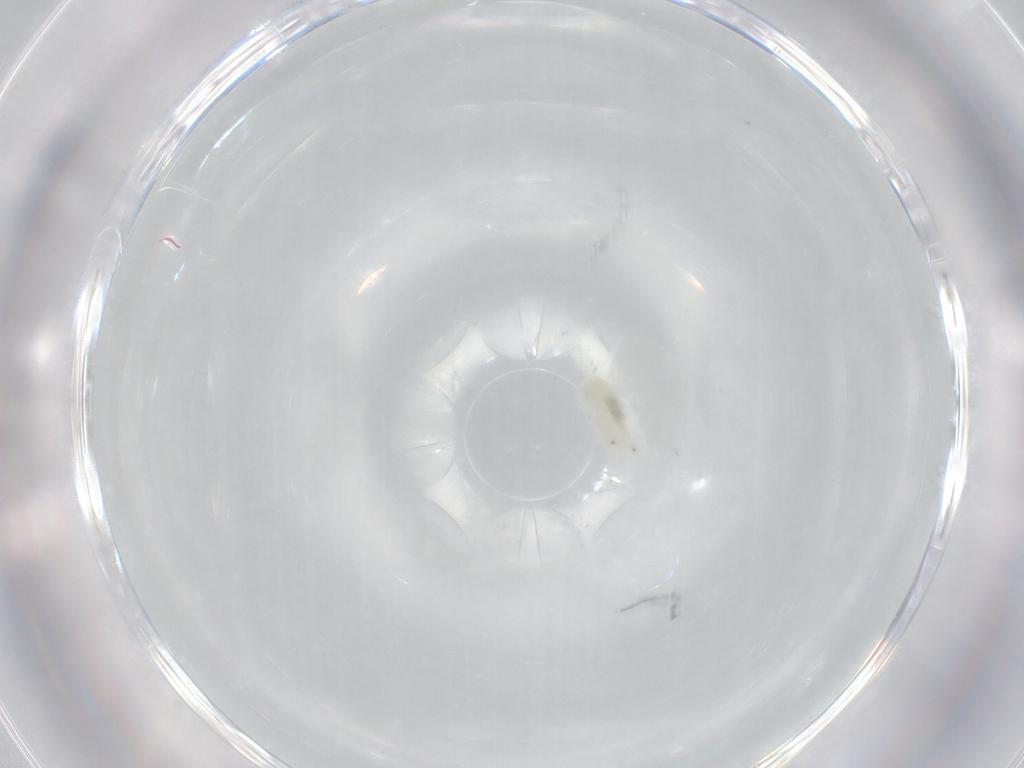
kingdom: Animalia
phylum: Arthropoda
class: Copepoda
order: Cyclopoida
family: Cyclopidae
